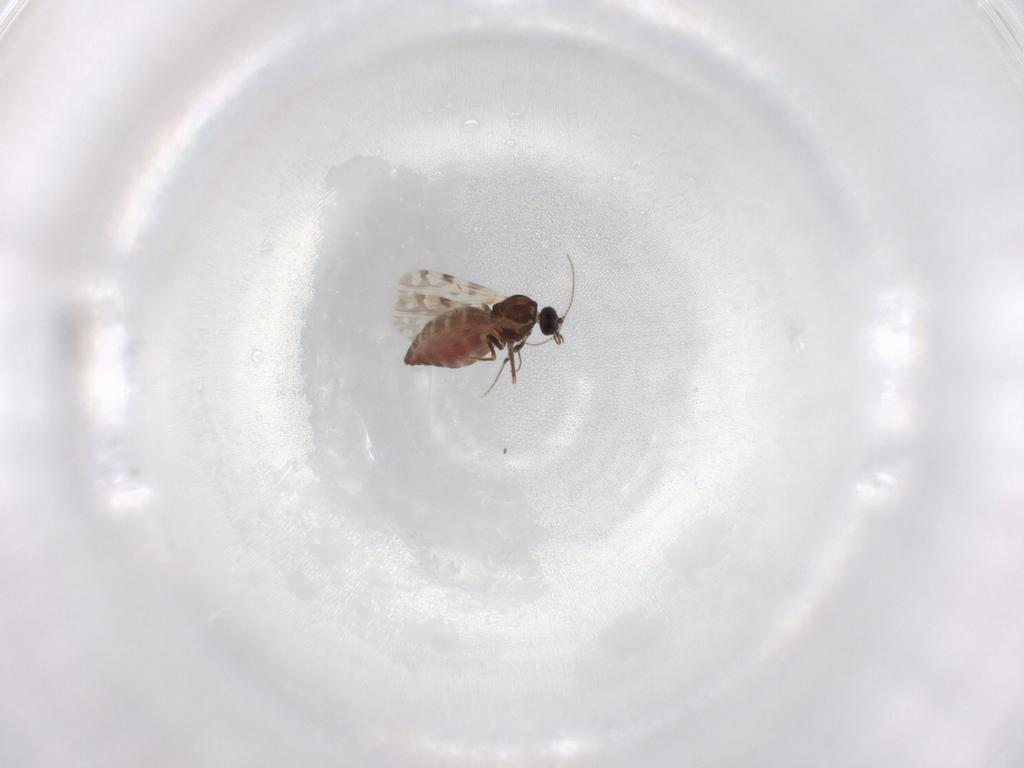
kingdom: Animalia
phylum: Arthropoda
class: Insecta
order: Diptera
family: Ceratopogonidae
